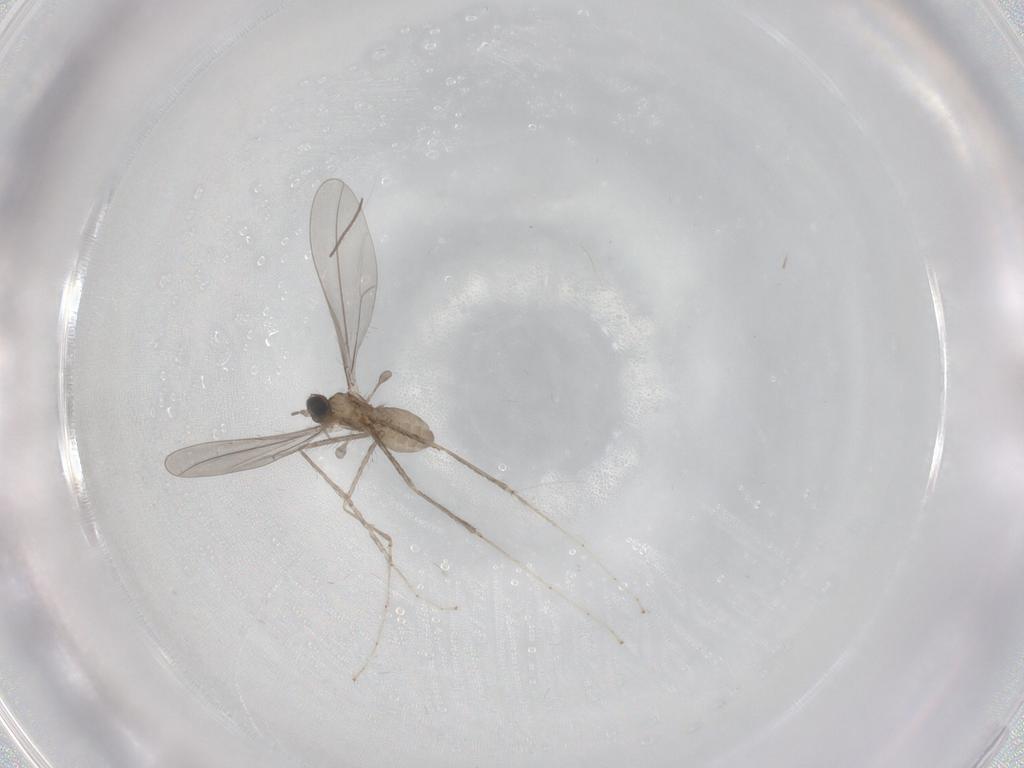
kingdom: Animalia
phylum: Arthropoda
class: Insecta
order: Diptera
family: Cecidomyiidae
